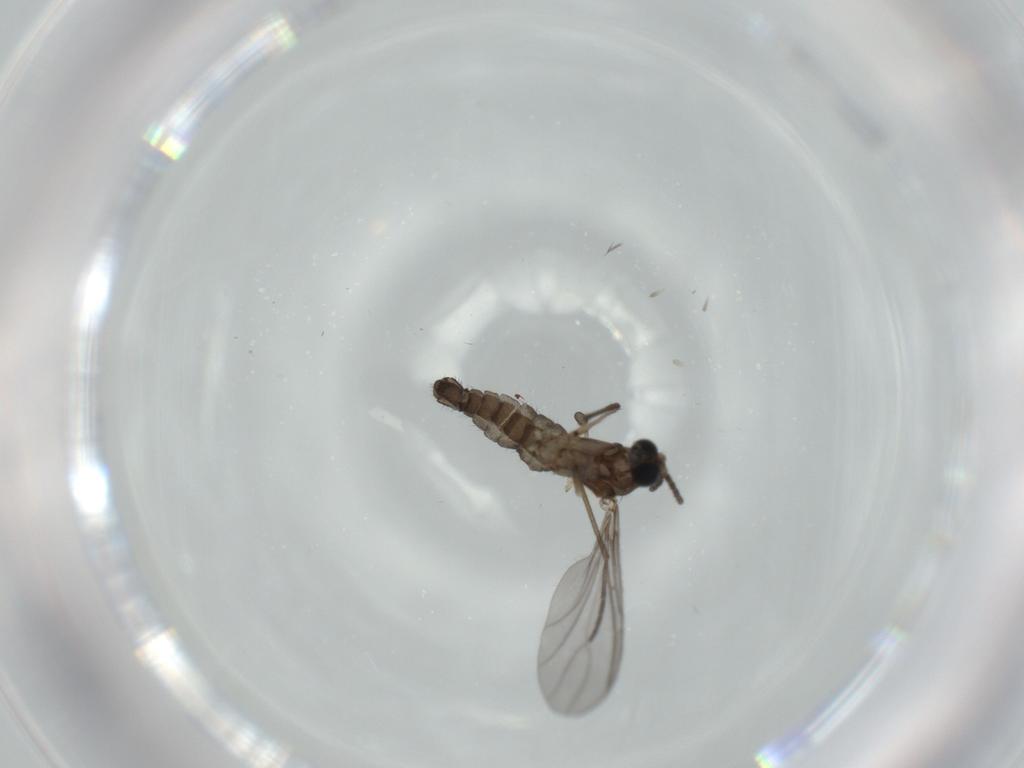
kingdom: Animalia
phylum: Arthropoda
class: Insecta
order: Diptera
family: Sciaridae
